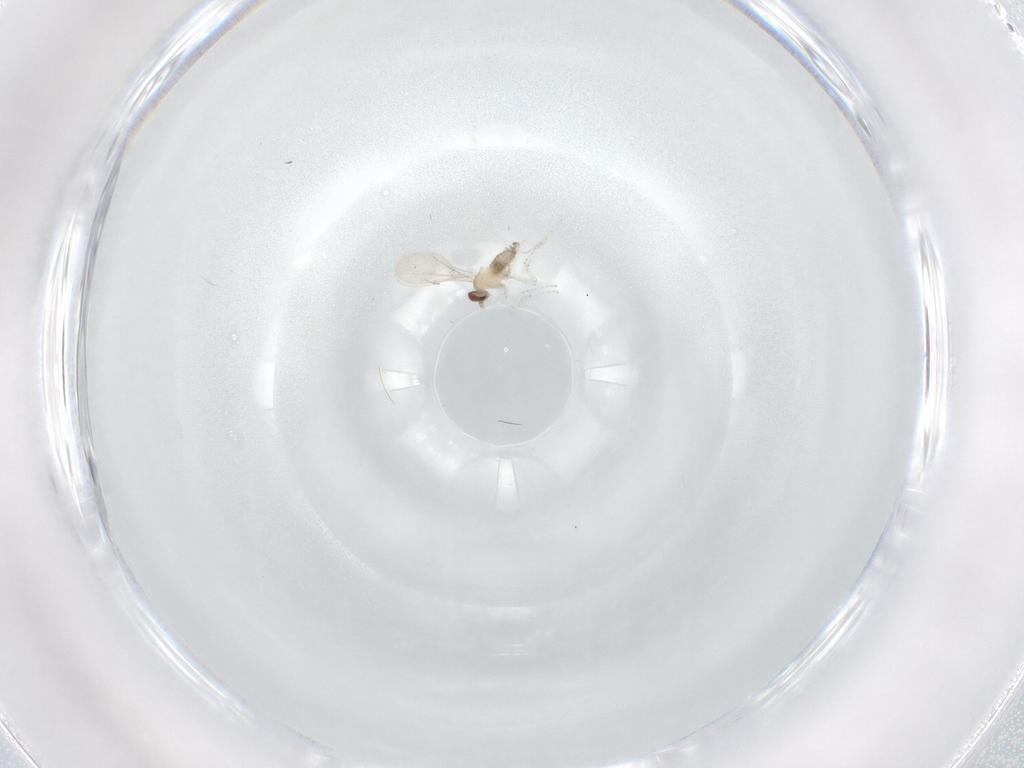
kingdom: Animalia
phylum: Arthropoda
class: Insecta
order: Diptera
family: Cecidomyiidae
